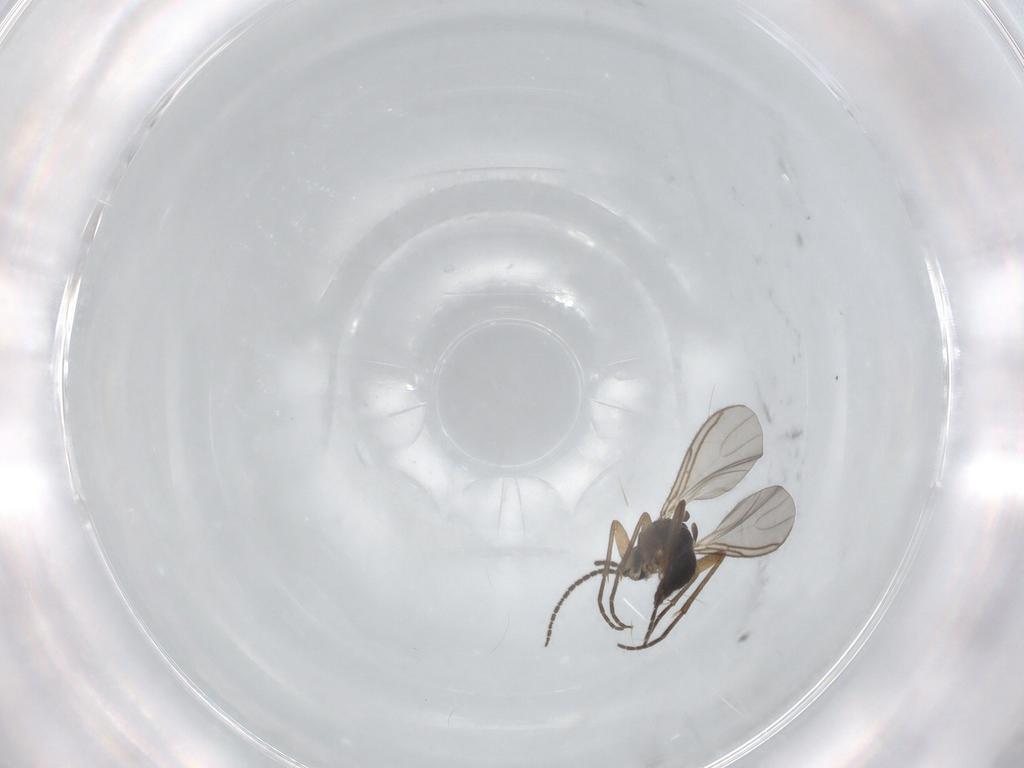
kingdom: Animalia
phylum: Arthropoda
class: Insecta
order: Diptera
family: Sciaridae
